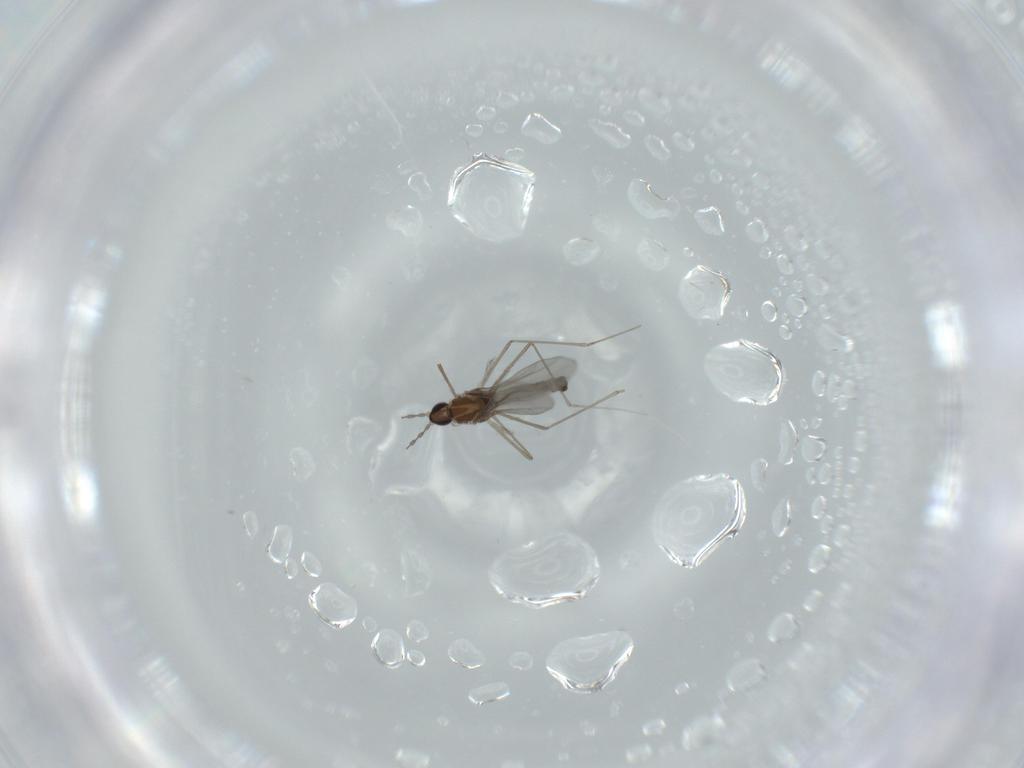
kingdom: Animalia
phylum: Arthropoda
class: Insecta
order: Diptera
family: Cecidomyiidae
